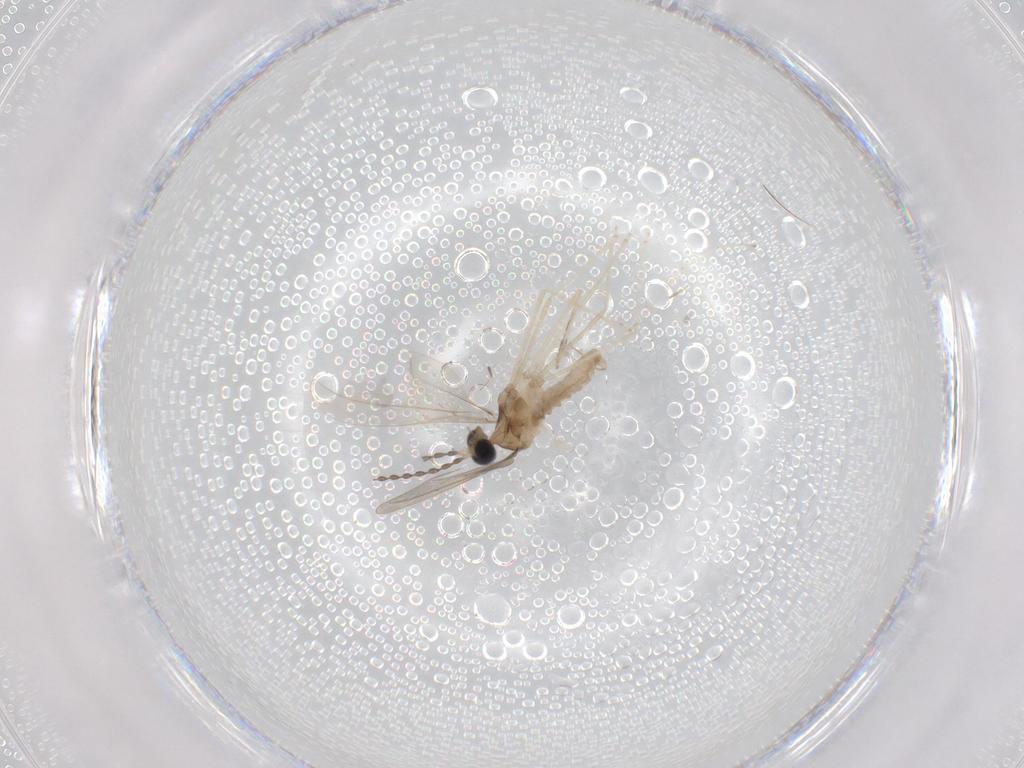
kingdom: Animalia
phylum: Arthropoda
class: Insecta
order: Diptera
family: Cecidomyiidae
